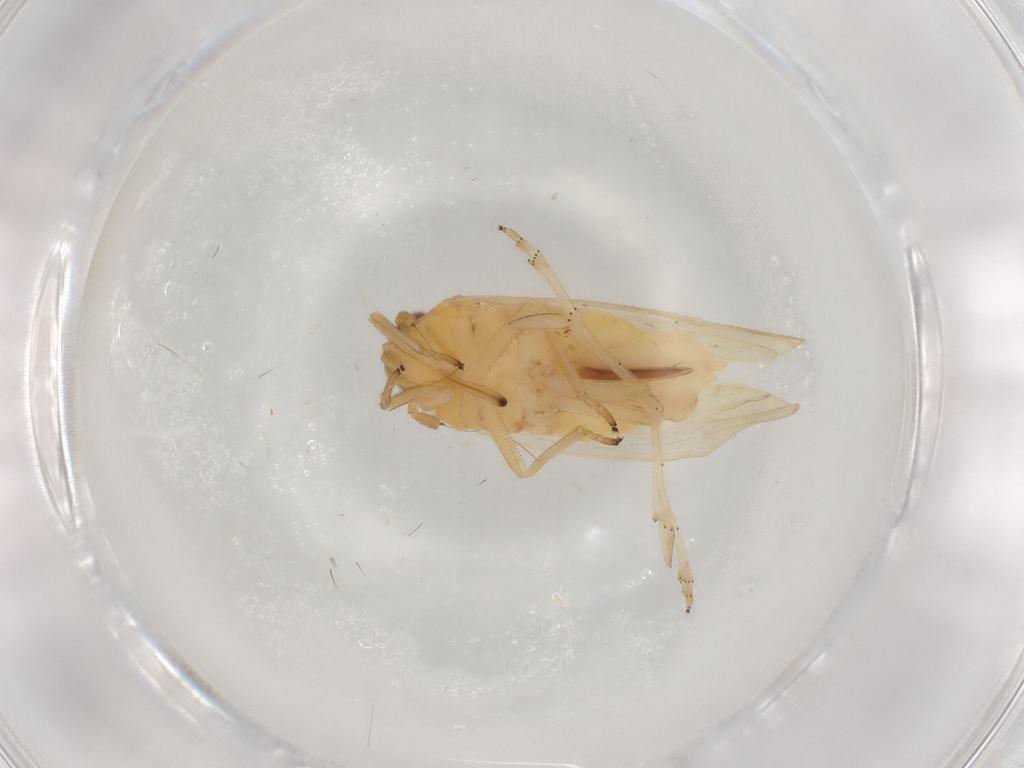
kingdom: Animalia
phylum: Arthropoda
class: Insecta
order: Hemiptera
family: Delphacidae
